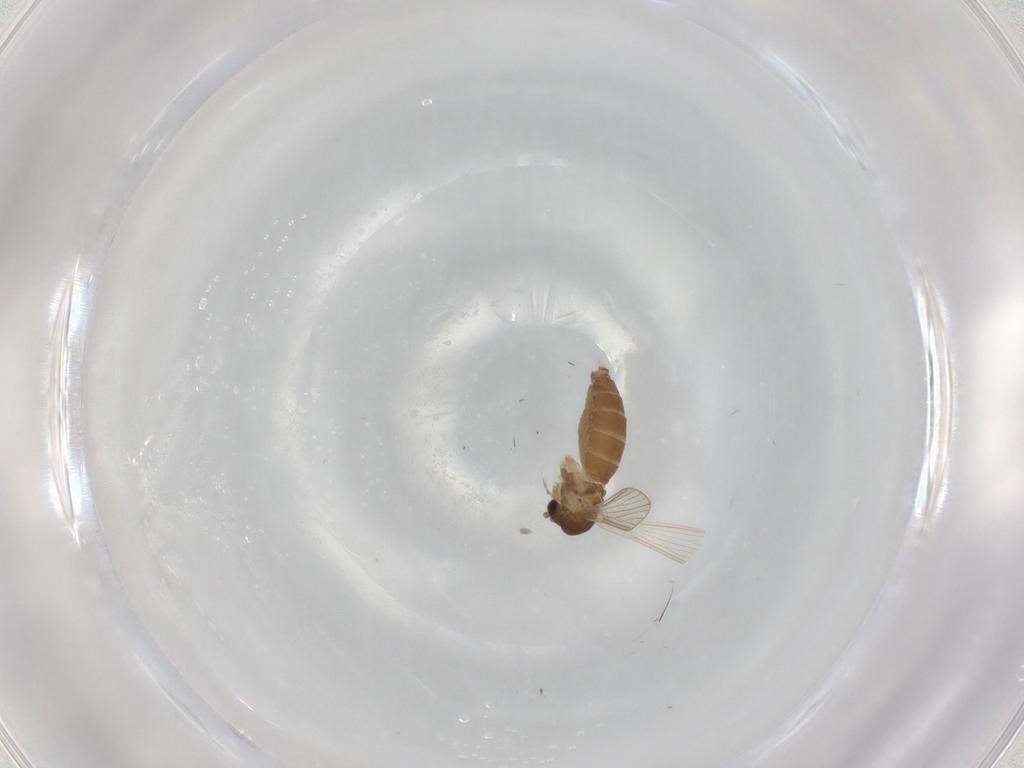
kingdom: Animalia
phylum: Arthropoda
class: Insecta
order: Diptera
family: Psychodidae
